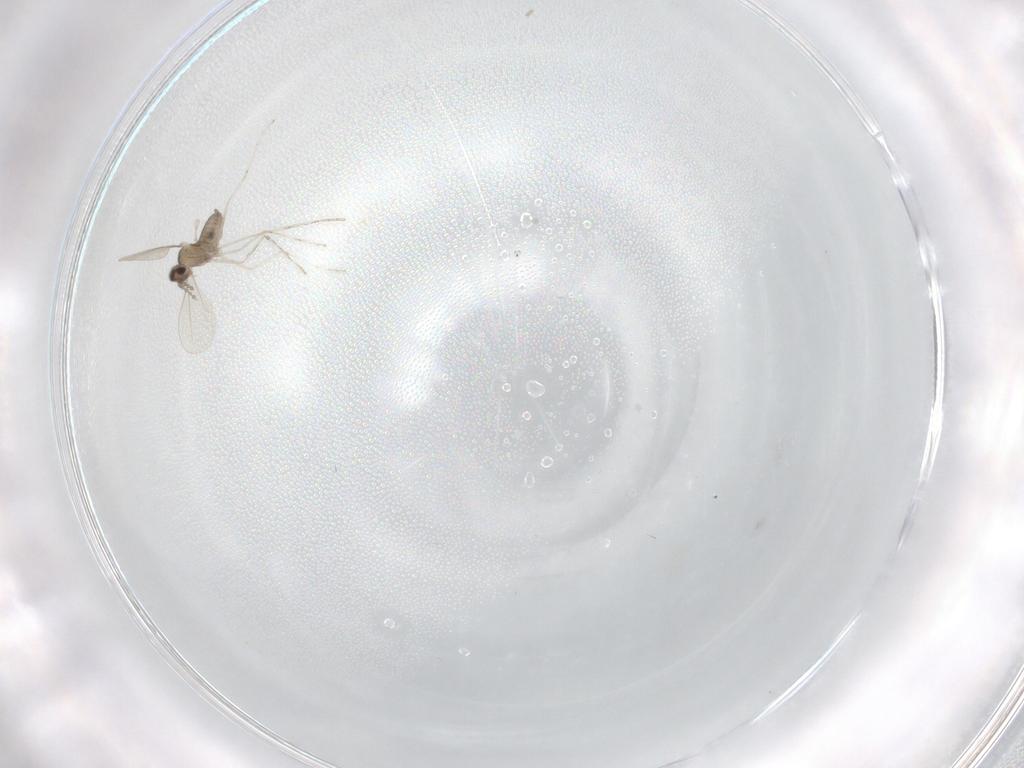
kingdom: Animalia
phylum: Arthropoda
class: Insecta
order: Diptera
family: Cecidomyiidae
